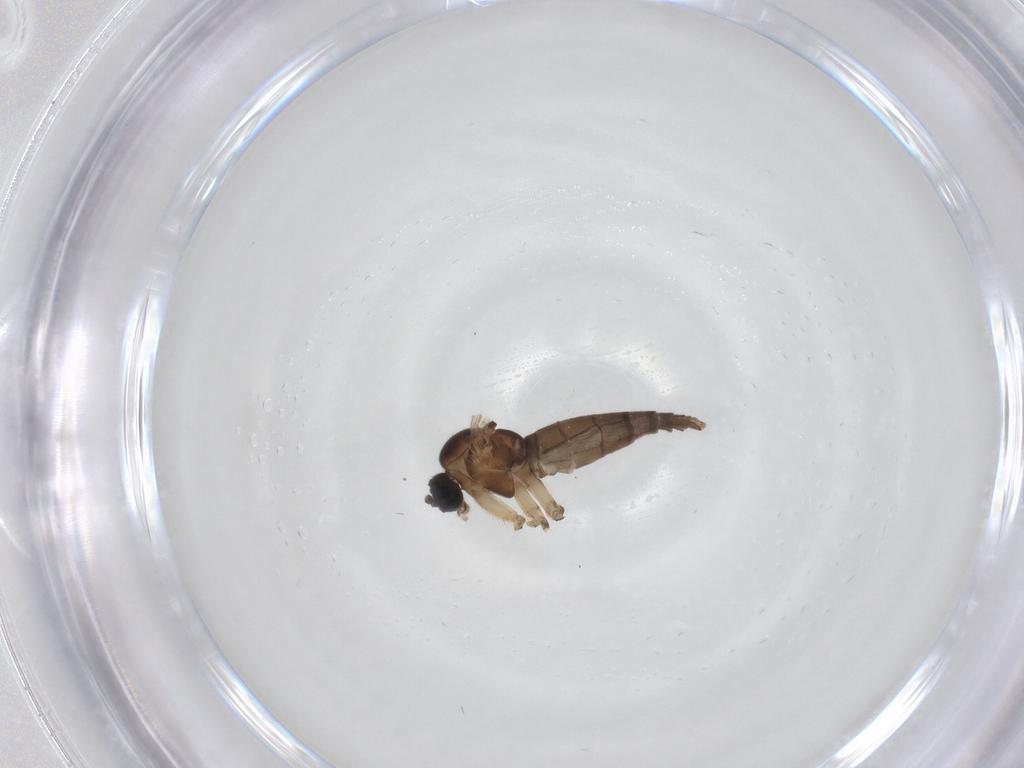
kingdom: Animalia
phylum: Arthropoda
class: Insecta
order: Diptera
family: Sciaridae
